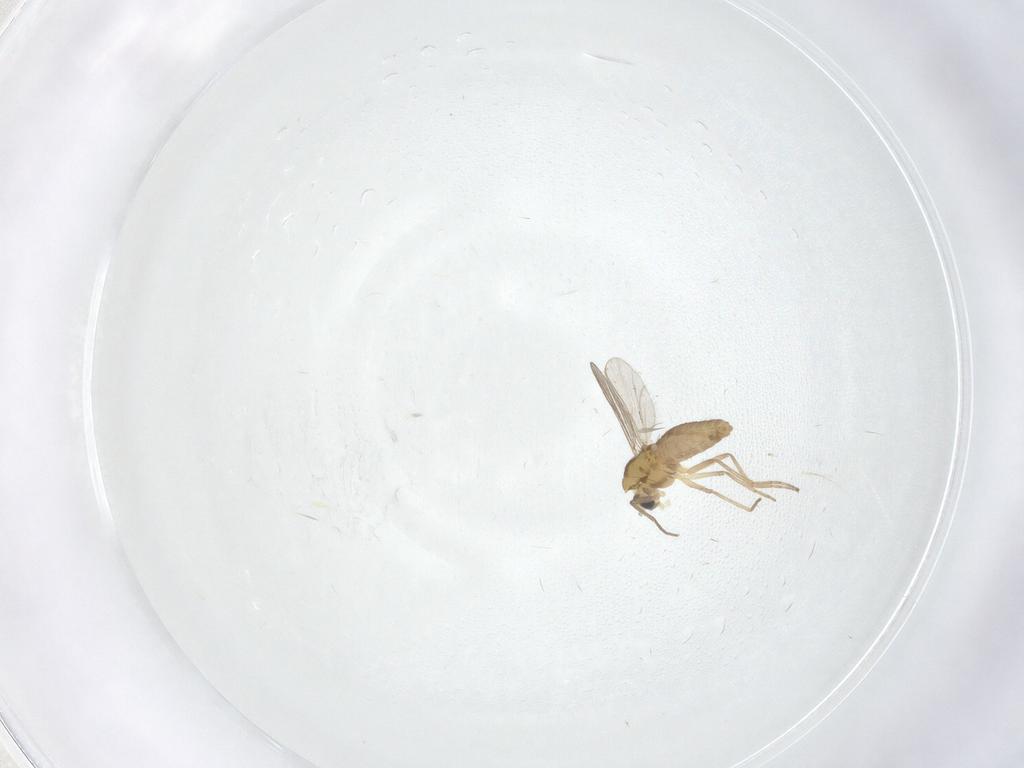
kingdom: Animalia
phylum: Arthropoda
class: Insecta
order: Diptera
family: Chironomidae
